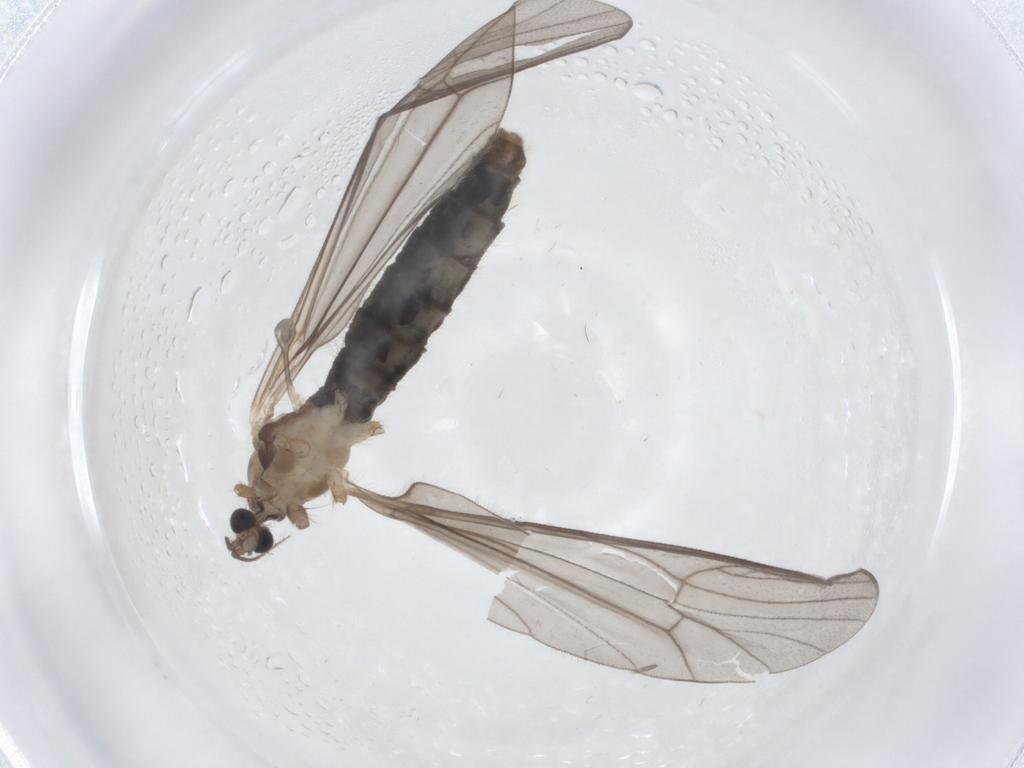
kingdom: Animalia
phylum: Arthropoda
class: Insecta
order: Diptera
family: Limoniidae
